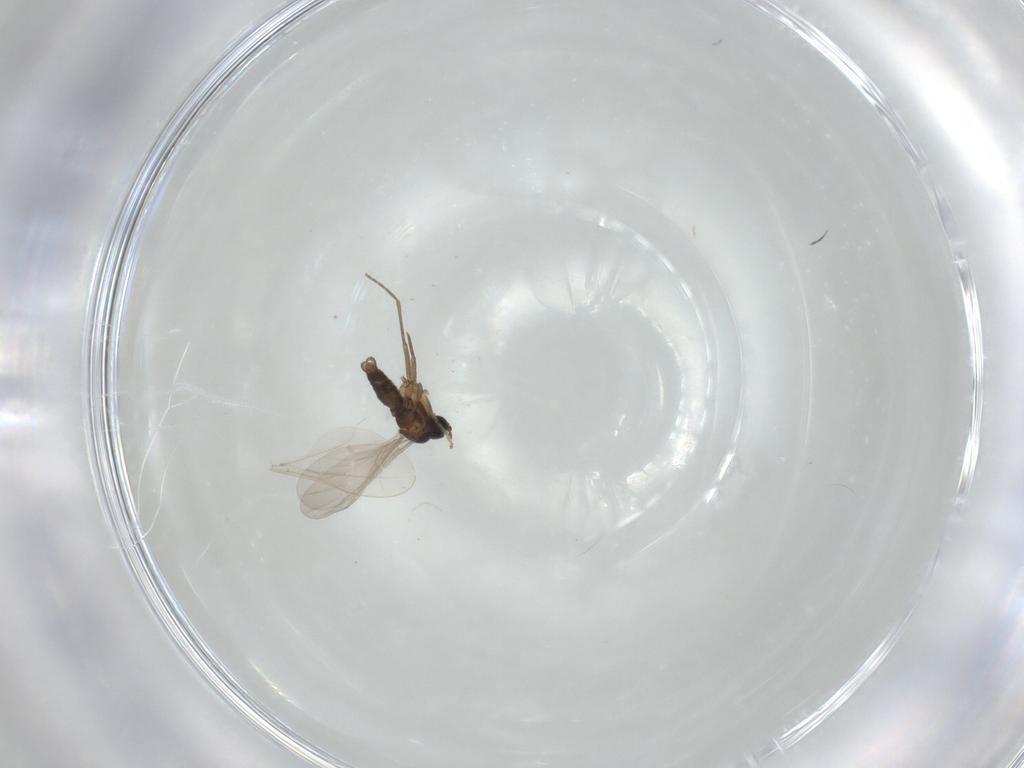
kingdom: Animalia
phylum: Arthropoda
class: Insecta
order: Diptera
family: Sciaridae
